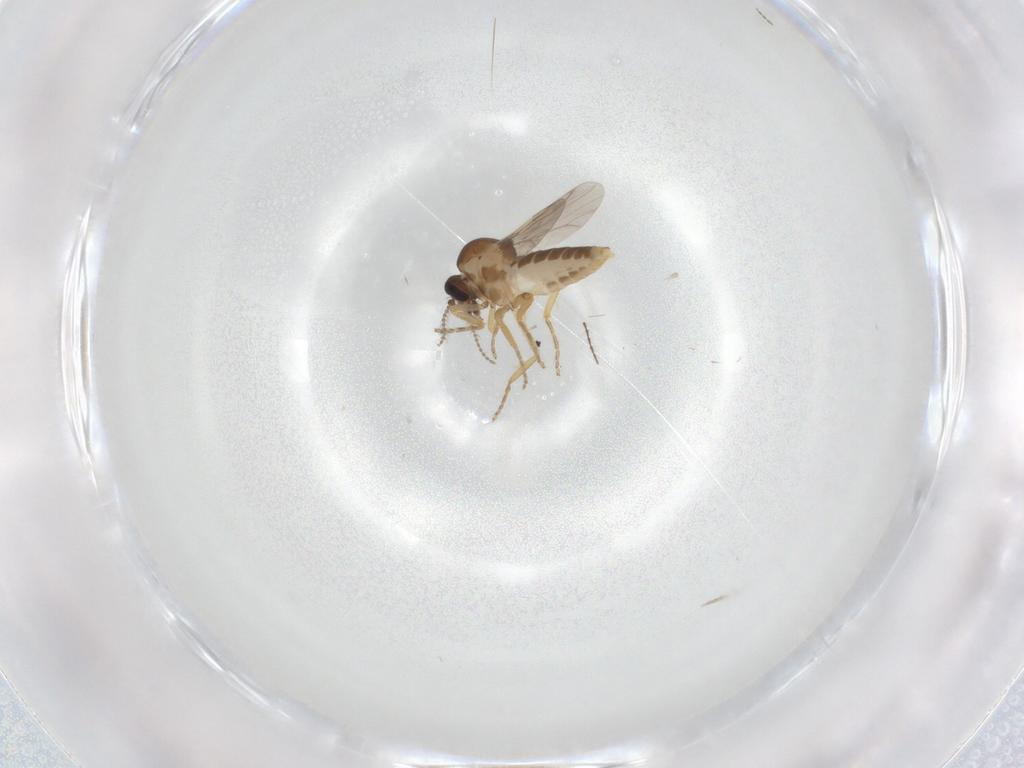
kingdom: Animalia
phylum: Arthropoda
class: Insecta
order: Diptera
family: Ceratopogonidae
